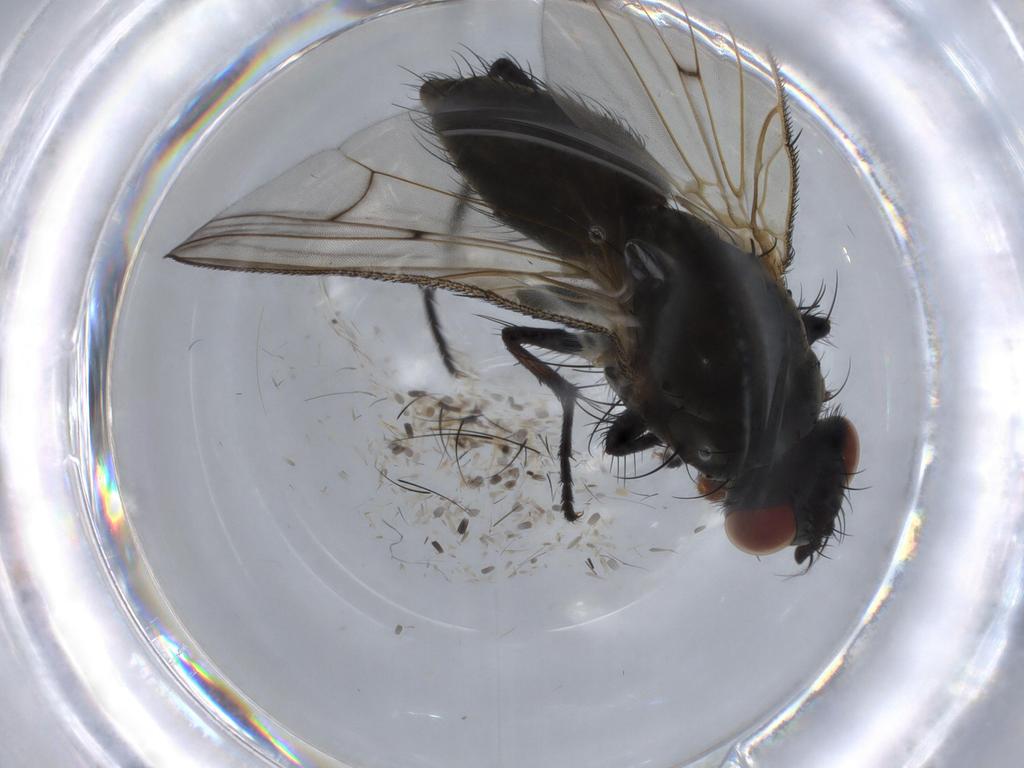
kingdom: Animalia
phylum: Arthropoda
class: Insecta
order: Diptera
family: Anthomyiidae
